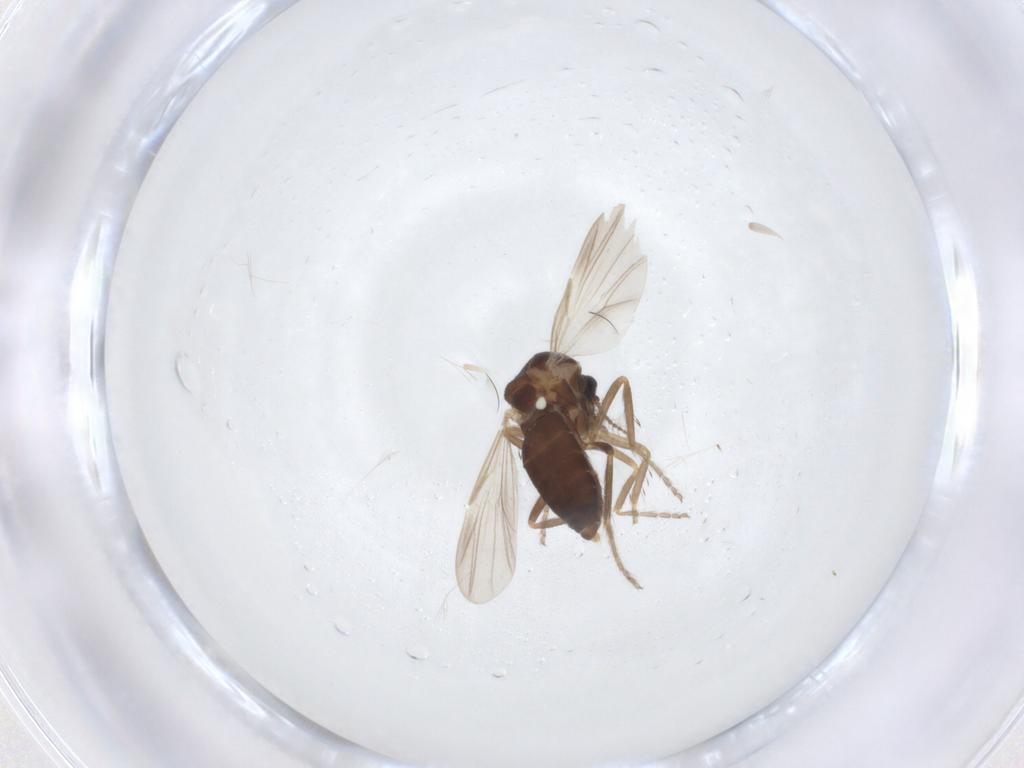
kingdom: Animalia
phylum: Arthropoda
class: Insecta
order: Diptera
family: Ceratopogonidae
